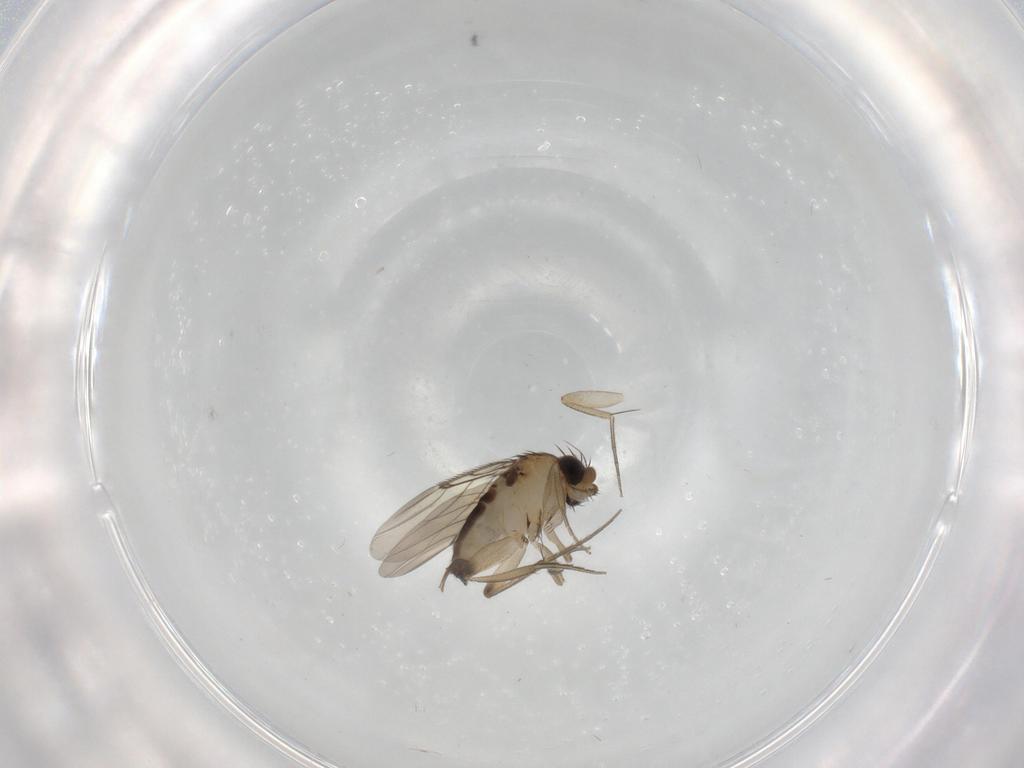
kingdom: Animalia
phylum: Arthropoda
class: Insecta
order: Diptera
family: Phoridae
